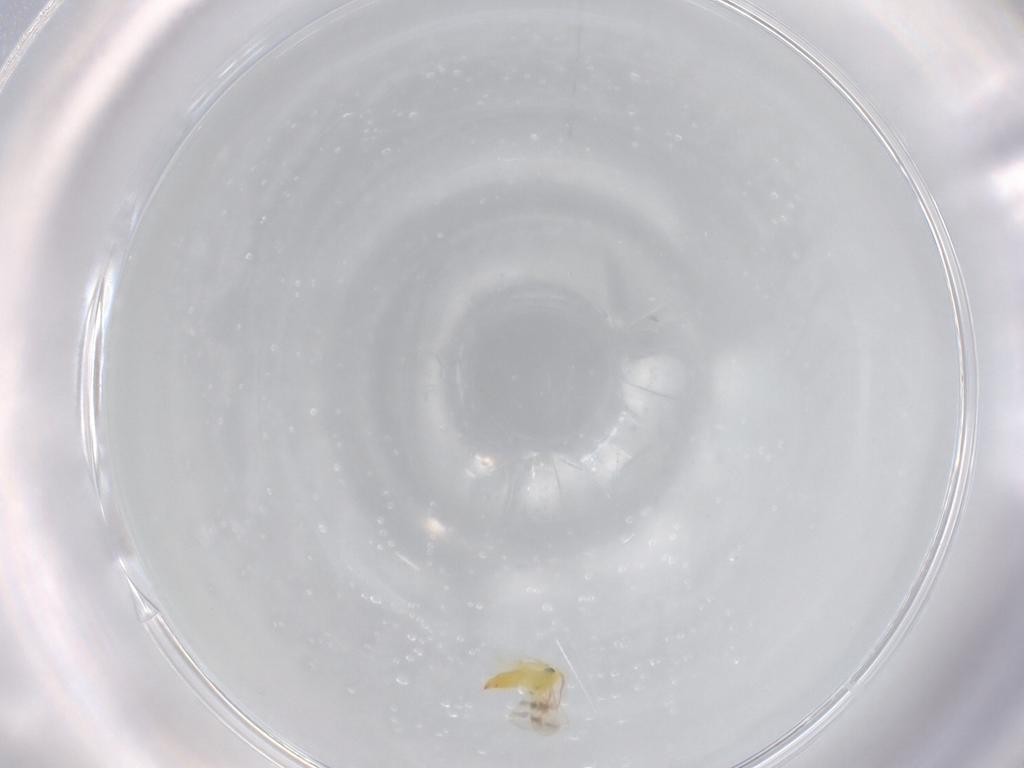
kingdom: Animalia
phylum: Arthropoda
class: Insecta
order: Hemiptera
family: Aleyrodidae
